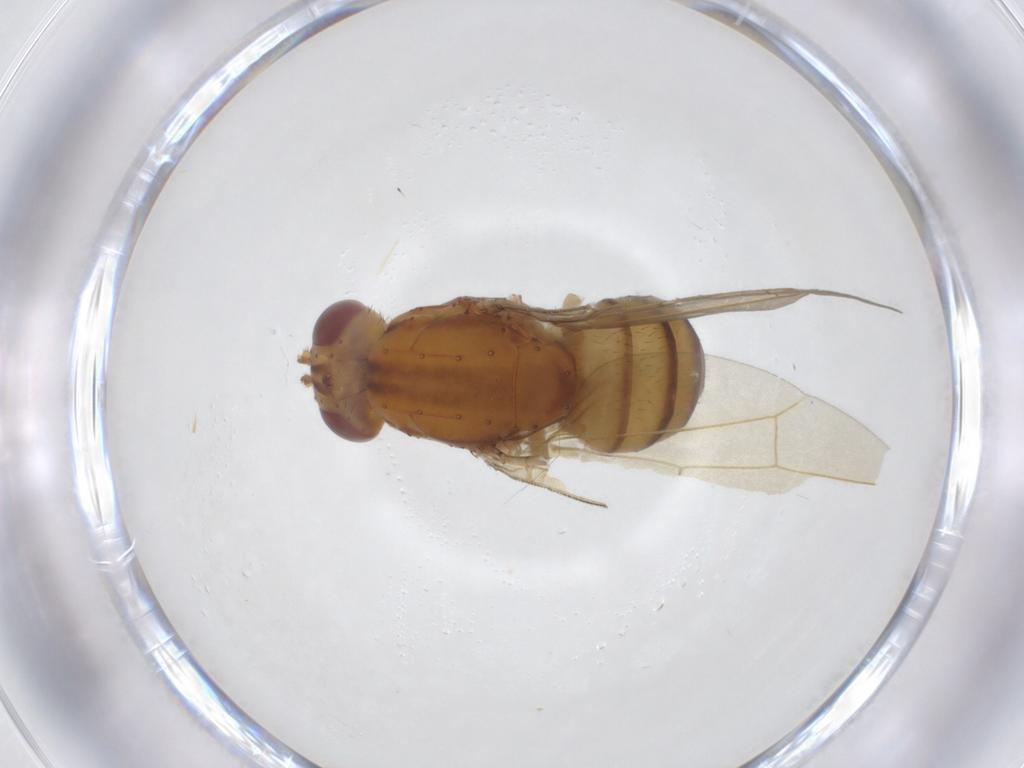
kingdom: Animalia
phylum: Arthropoda
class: Insecta
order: Diptera
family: Lauxaniidae
